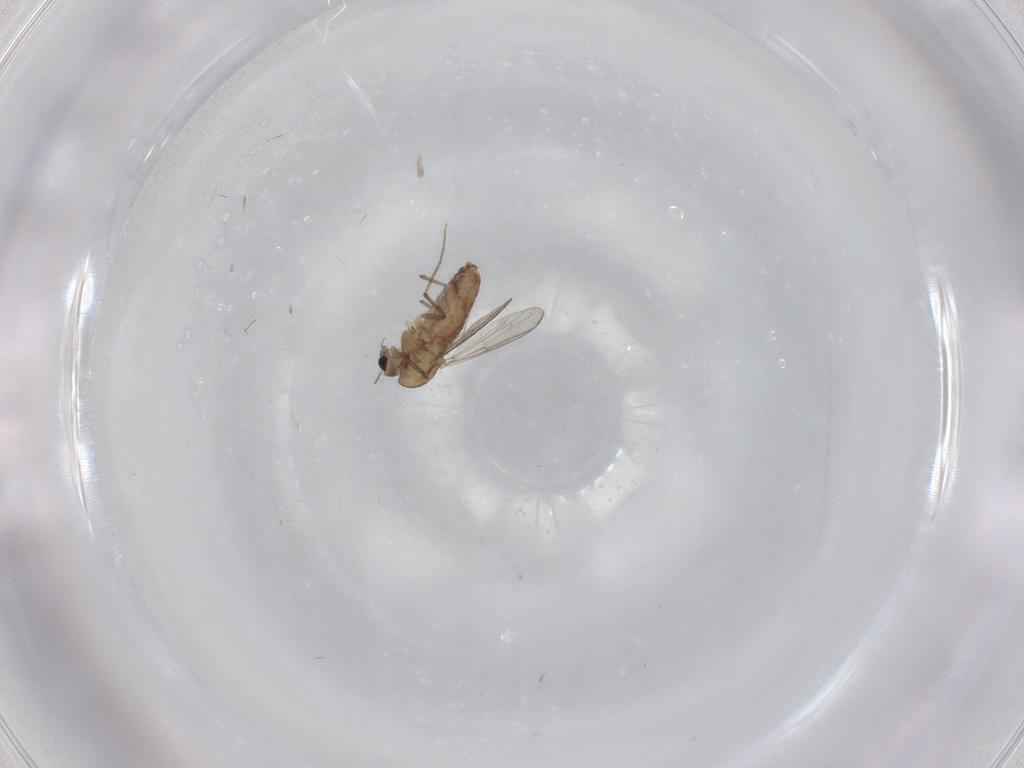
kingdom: Animalia
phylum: Arthropoda
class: Insecta
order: Diptera
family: Chironomidae
